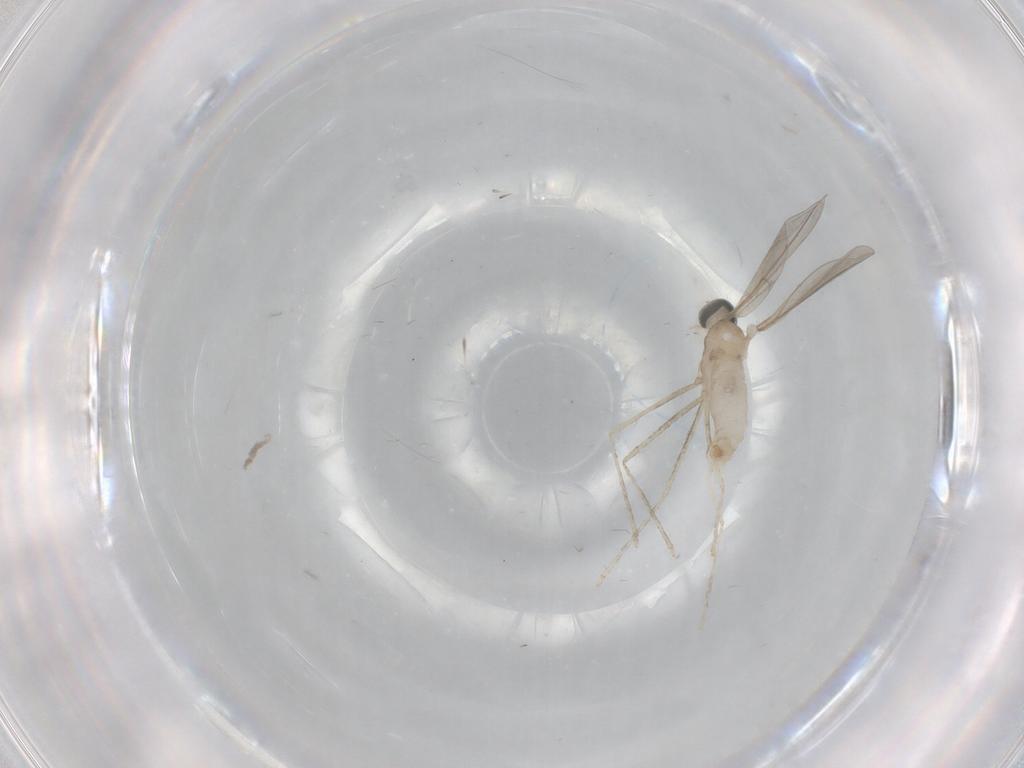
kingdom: Animalia
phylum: Arthropoda
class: Insecta
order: Diptera
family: Cecidomyiidae
